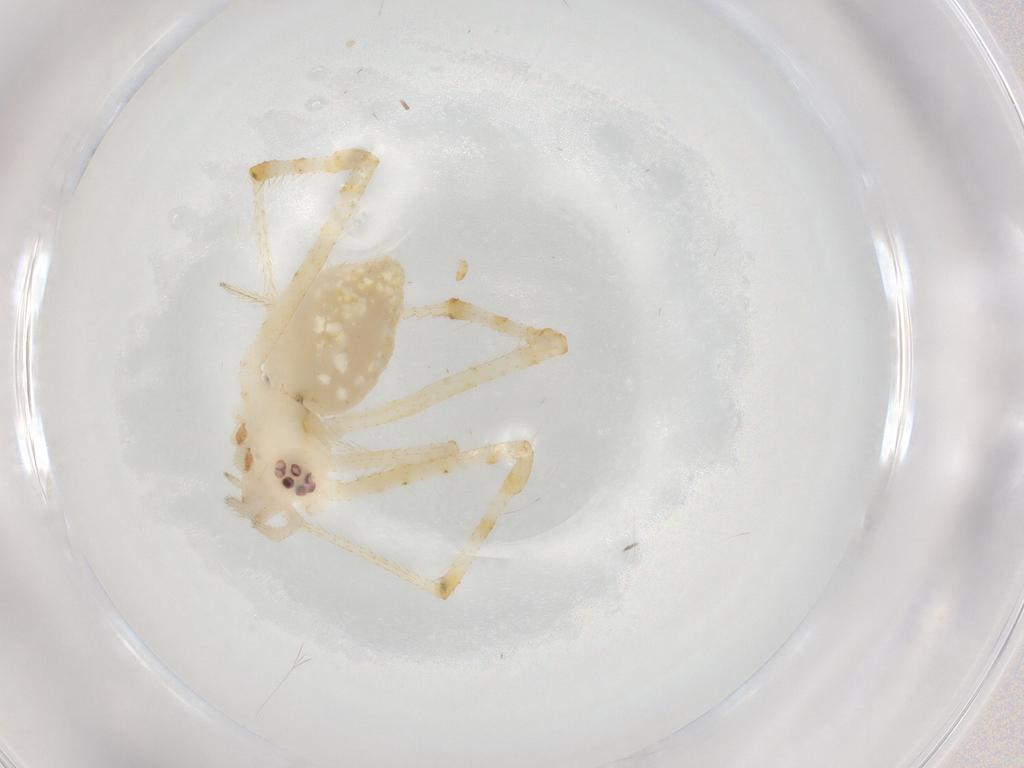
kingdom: Animalia
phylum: Arthropoda
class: Arachnida
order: Araneae
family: Theridiidae
